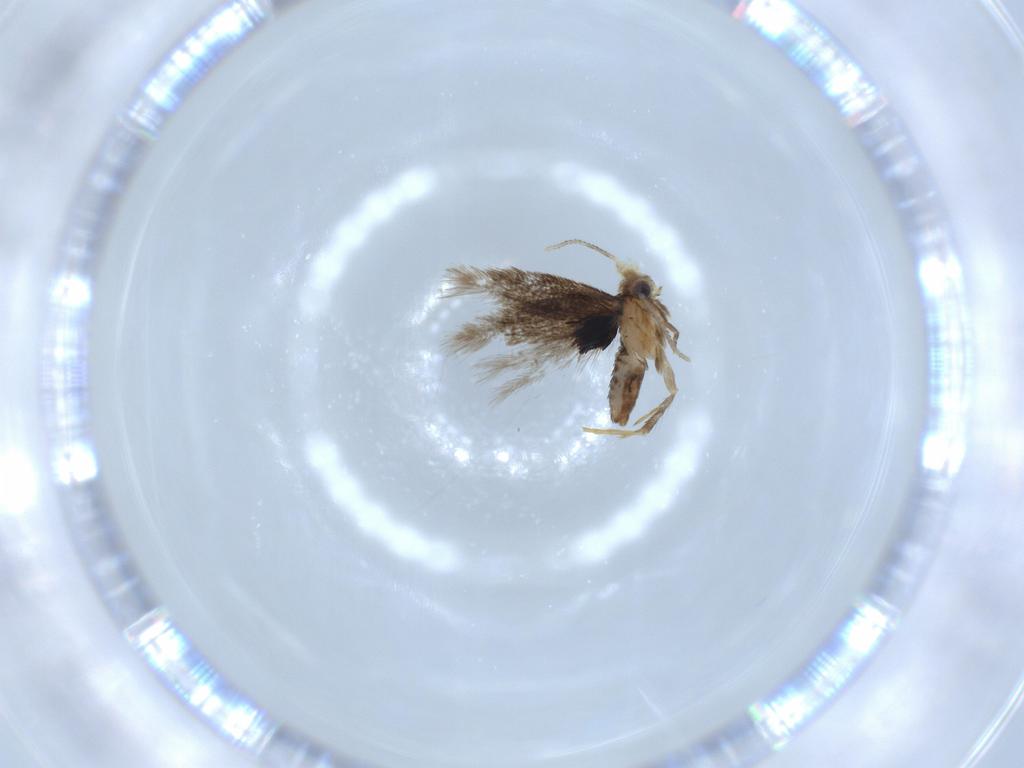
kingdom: Animalia
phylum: Arthropoda
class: Insecta
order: Lepidoptera
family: Nepticulidae
